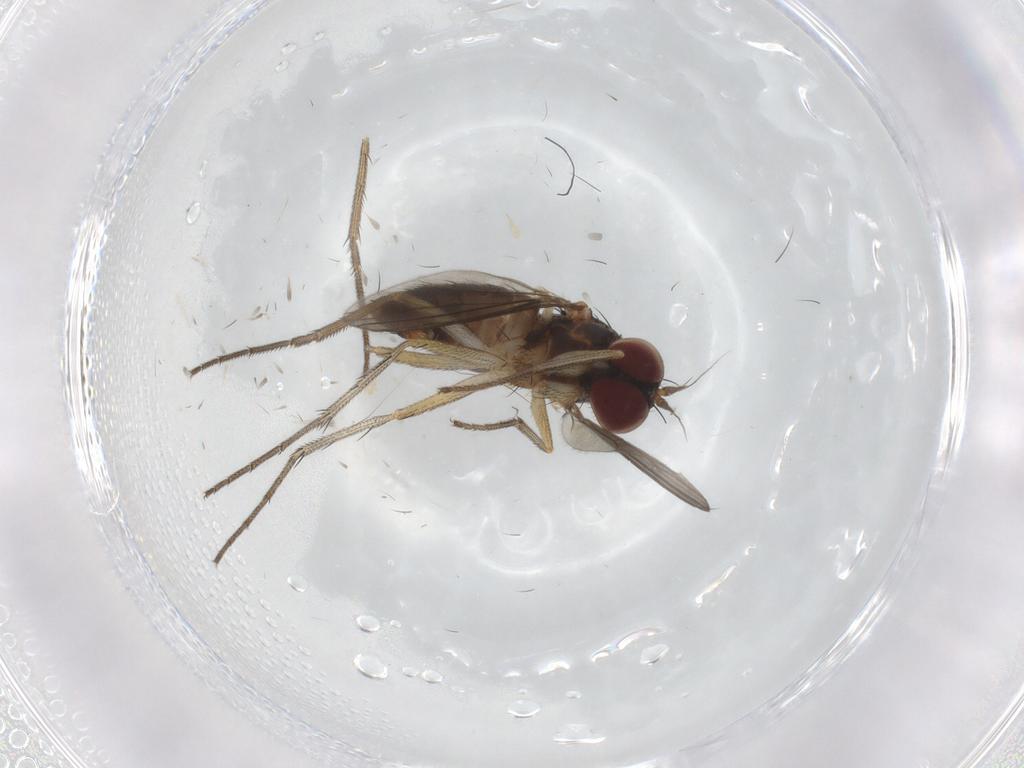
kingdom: Animalia
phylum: Arthropoda
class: Insecta
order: Diptera
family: Dolichopodidae
